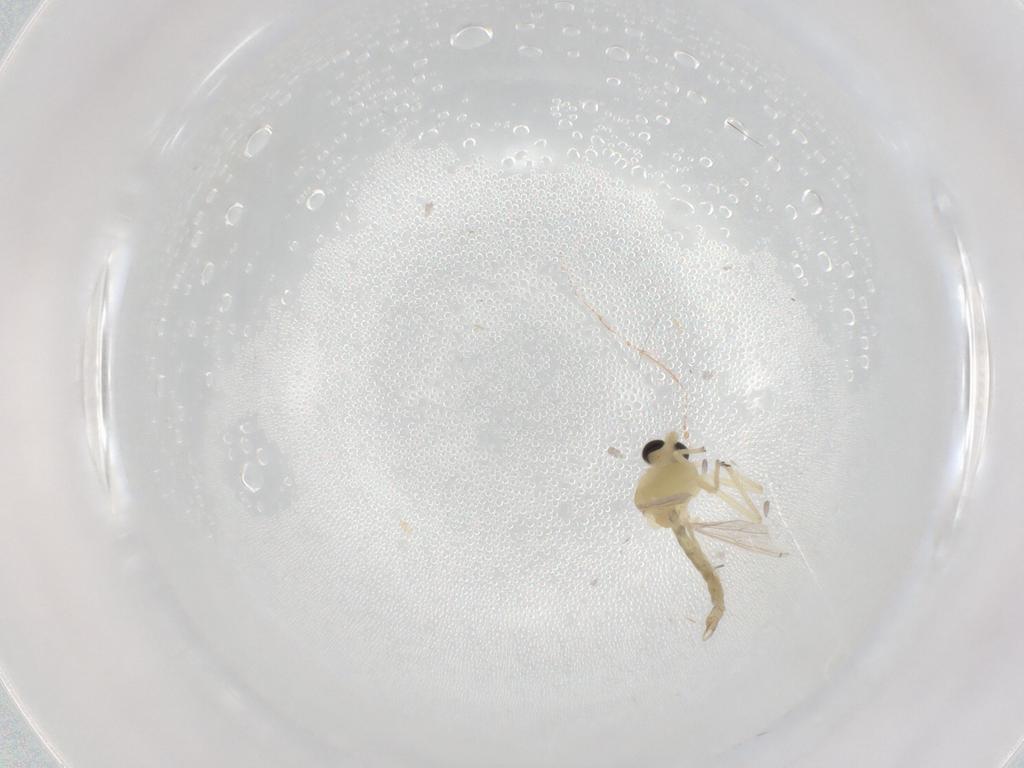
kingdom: Animalia
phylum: Arthropoda
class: Insecta
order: Diptera
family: Chironomidae
